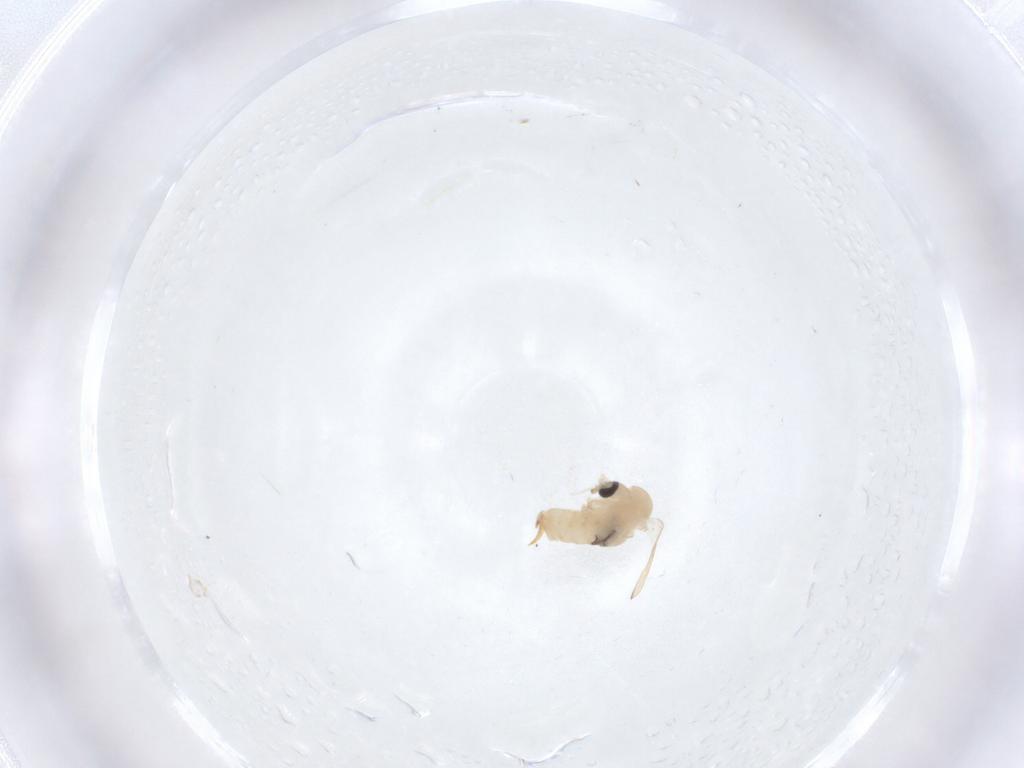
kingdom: Animalia
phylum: Arthropoda
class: Insecta
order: Diptera
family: Psychodidae
